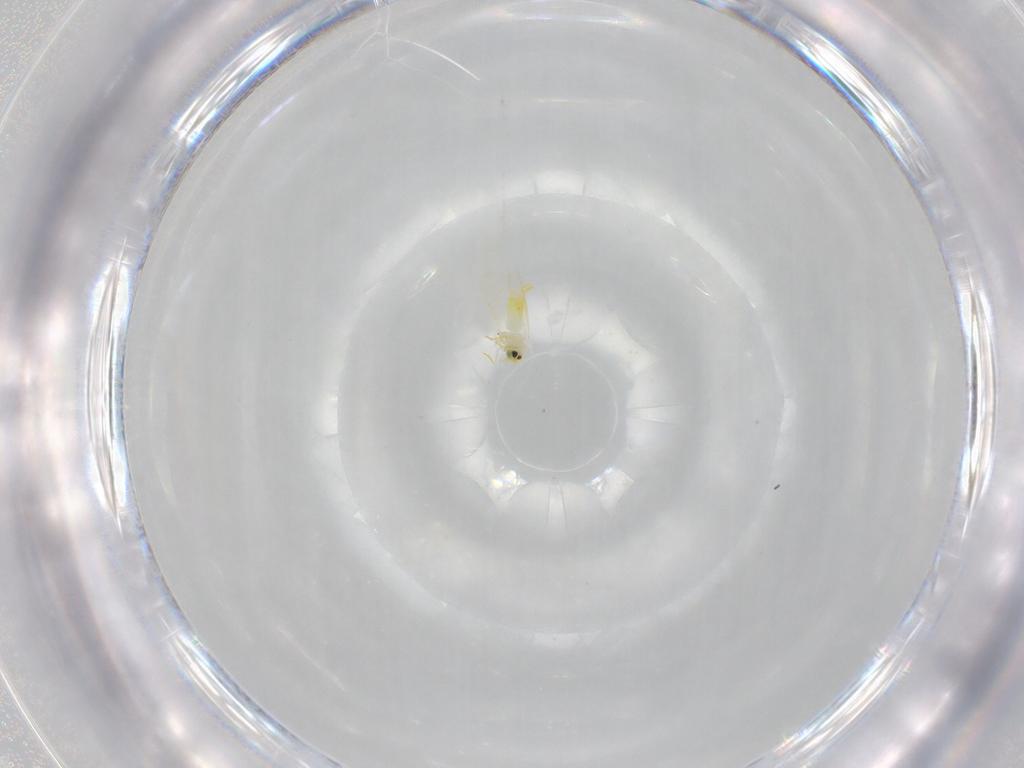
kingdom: Animalia
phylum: Arthropoda
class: Insecta
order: Hemiptera
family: Aleyrodidae
